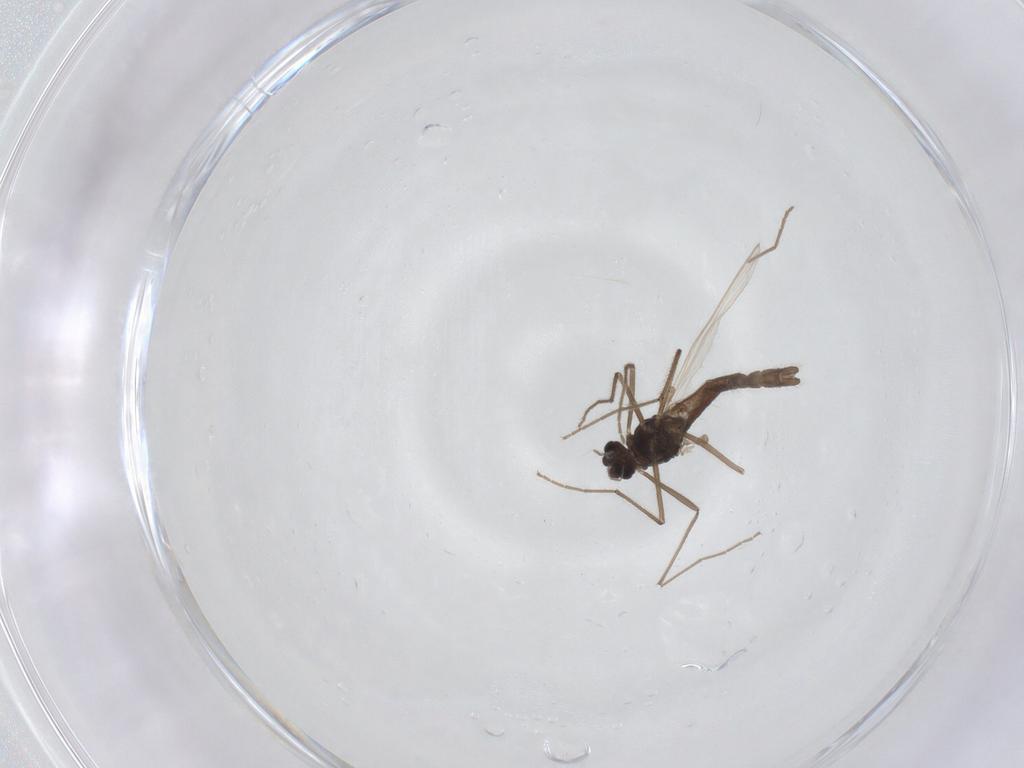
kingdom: Animalia
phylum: Arthropoda
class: Insecta
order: Diptera
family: Chironomidae
